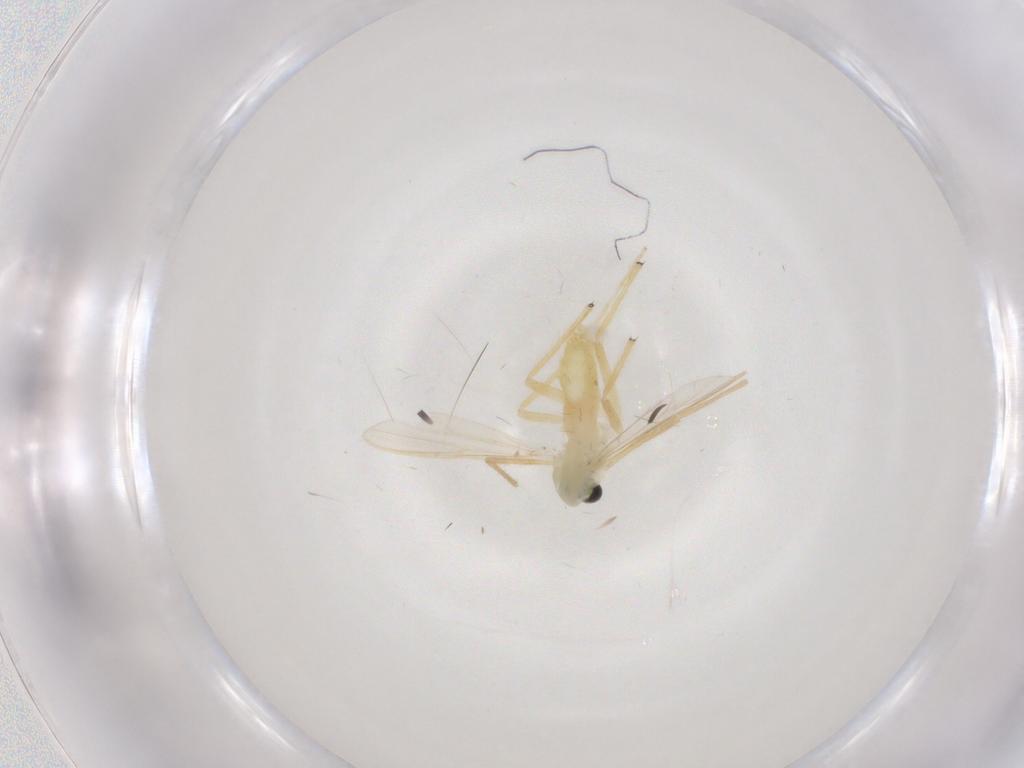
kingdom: Animalia
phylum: Arthropoda
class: Insecta
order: Diptera
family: Chironomidae
